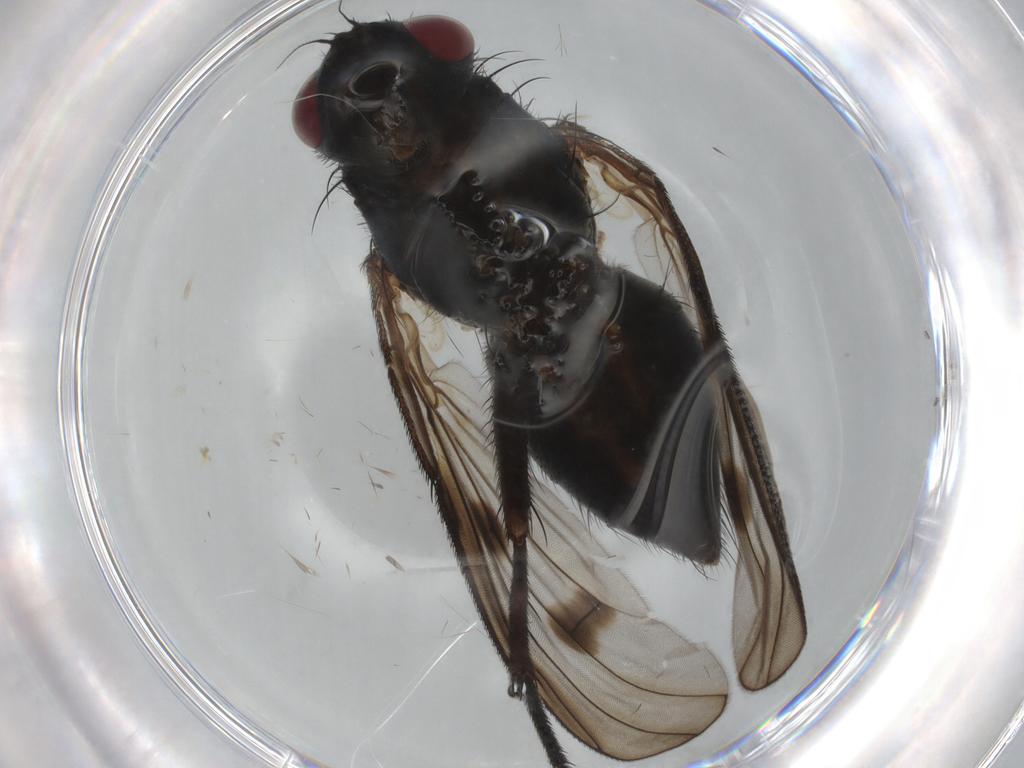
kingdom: Animalia
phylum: Arthropoda
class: Insecta
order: Diptera
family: Muscidae
